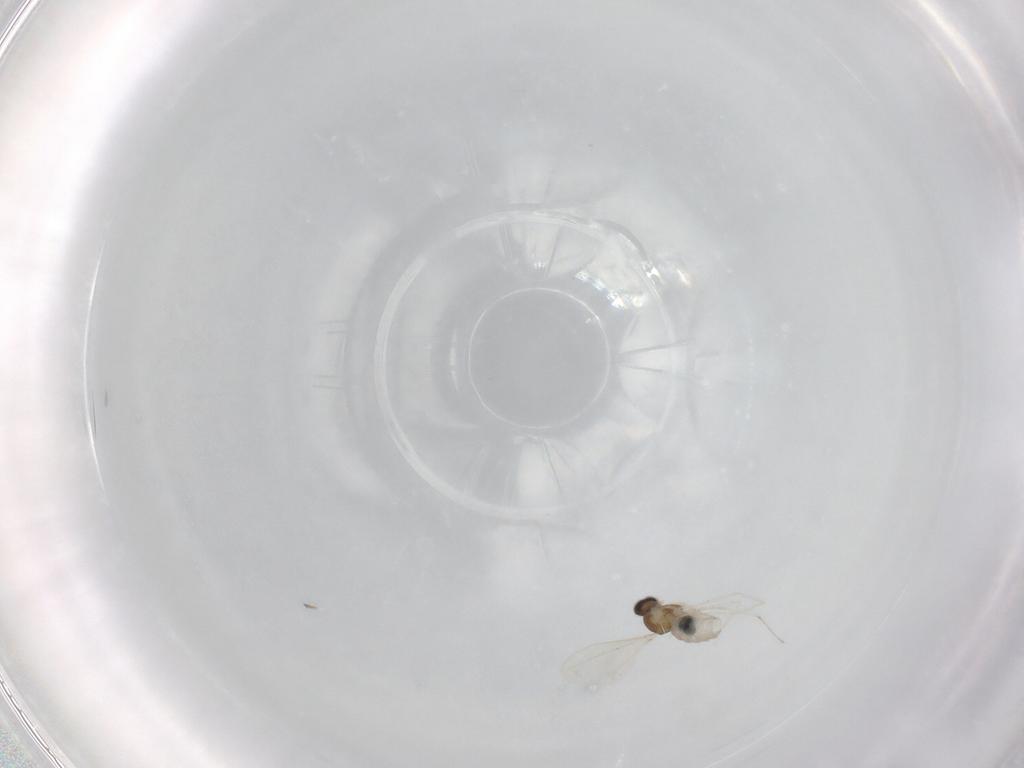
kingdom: Animalia
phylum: Arthropoda
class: Insecta
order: Diptera
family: Cecidomyiidae
